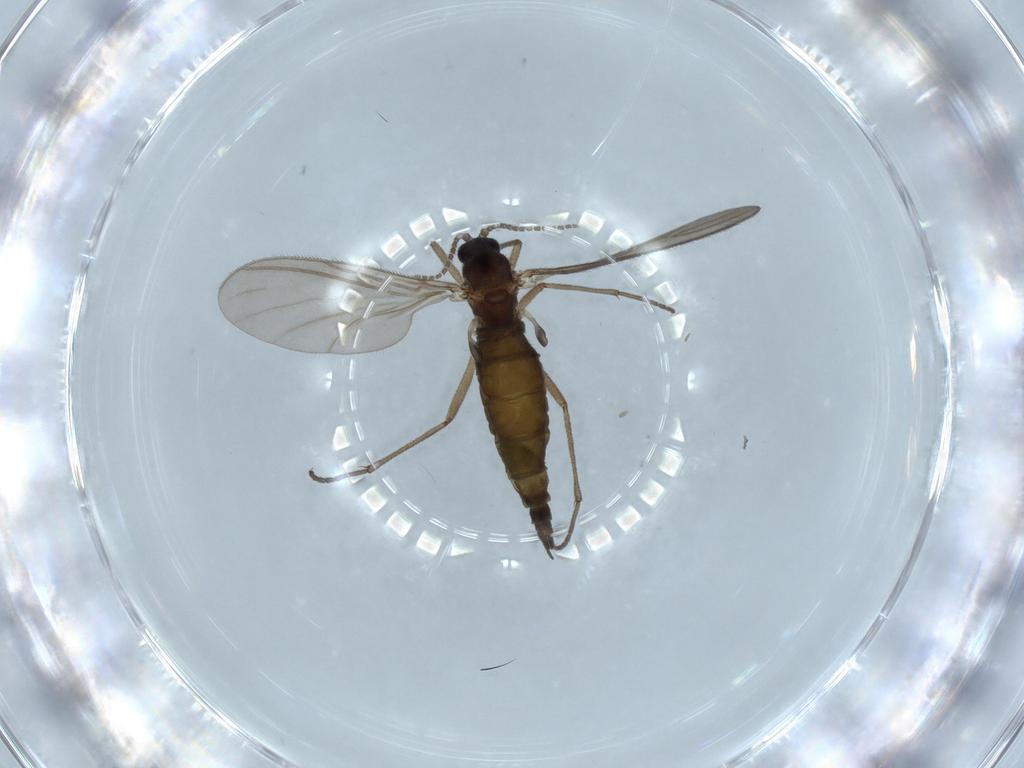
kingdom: Animalia
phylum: Arthropoda
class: Insecta
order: Diptera
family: Sciaridae
